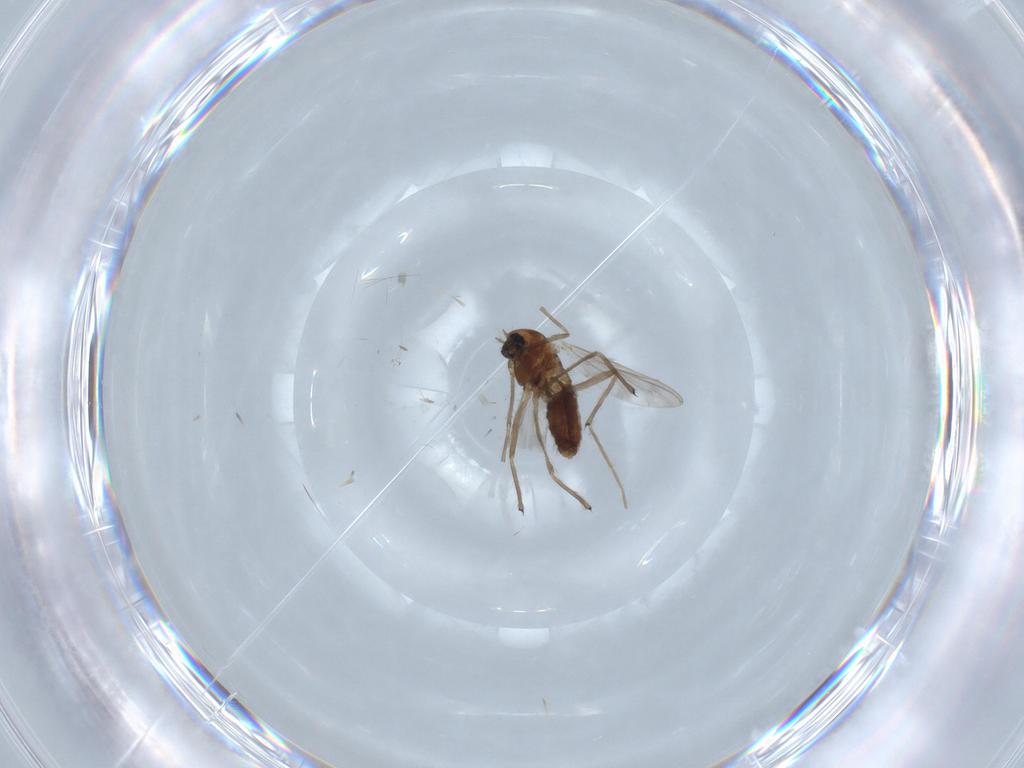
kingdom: Animalia
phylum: Arthropoda
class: Insecta
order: Diptera
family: Chironomidae
